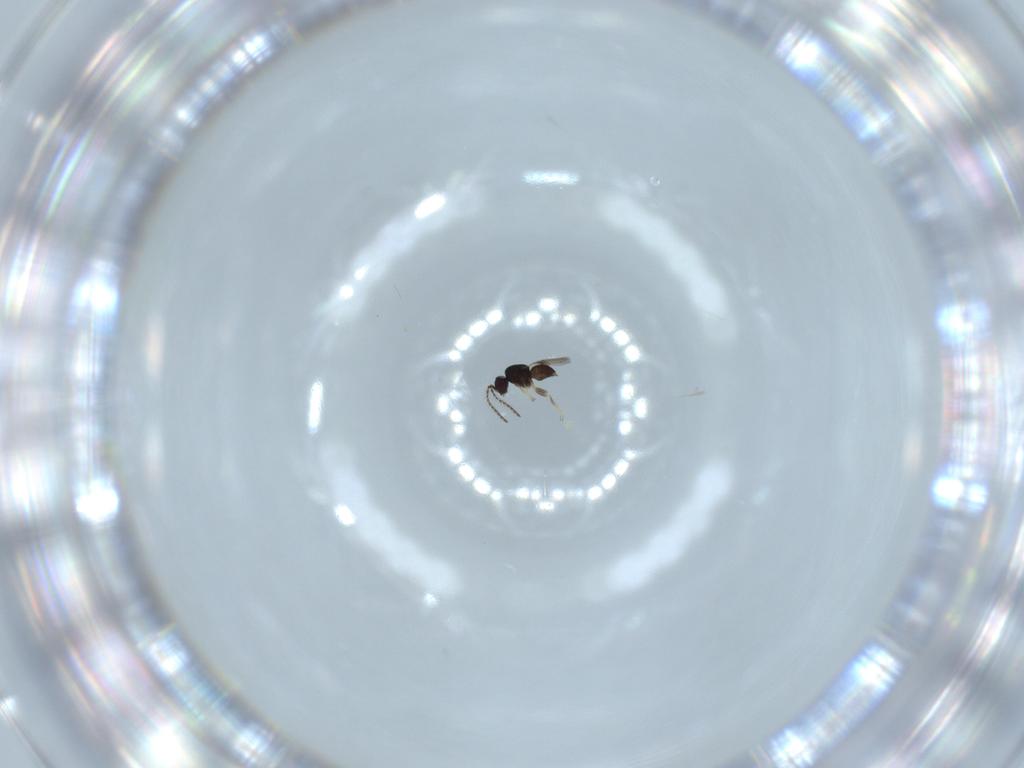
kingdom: Animalia
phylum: Arthropoda
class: Insecta
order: Hymenoptera
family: Ceraphronidae
